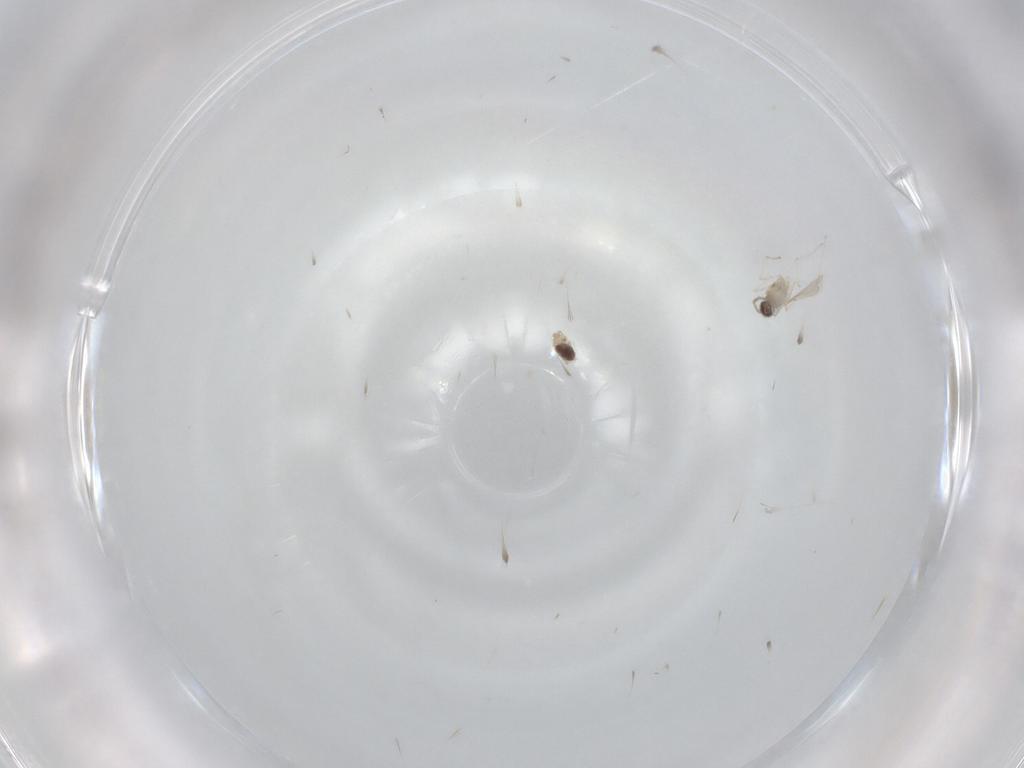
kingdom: Animalia
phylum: Arthropoda
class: Insecta
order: Diptera
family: Cecidomyiidae
